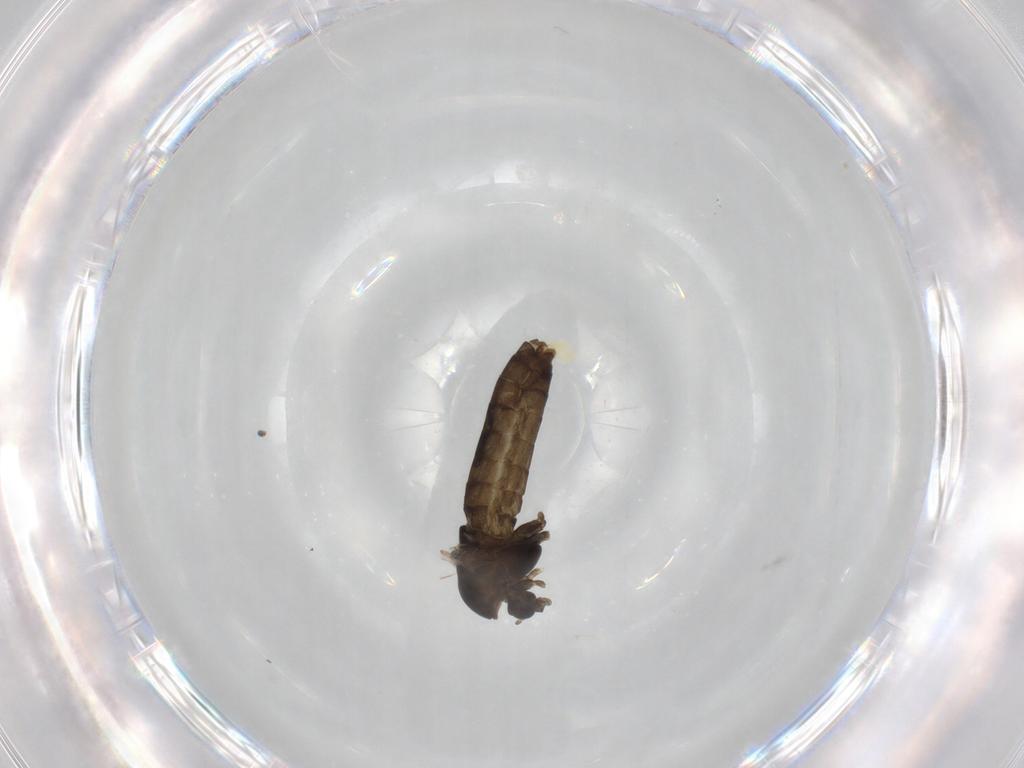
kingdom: Animalia
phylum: Arthropoda
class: Insecta
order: Diptera
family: Chironomidae
